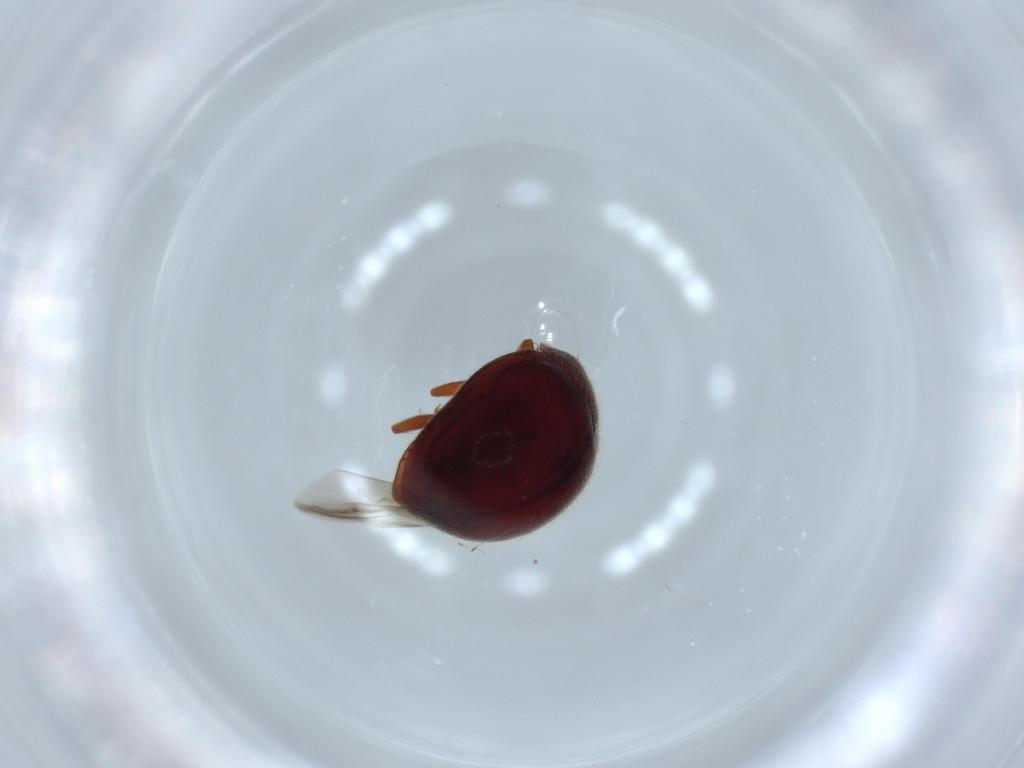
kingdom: Animalia
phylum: Arthropoda
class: Insecta
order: Coleoptera
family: Coccinellidae
